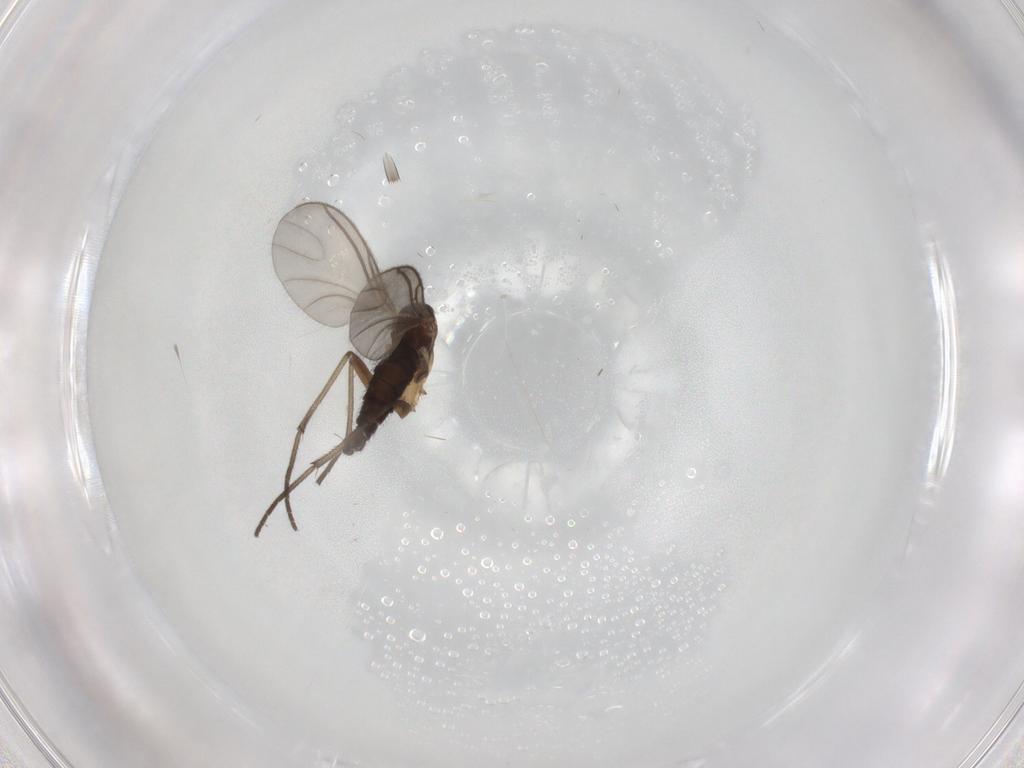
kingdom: Animalia
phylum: Arthropoda
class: Insecta
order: Diptera
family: Sciaridae
